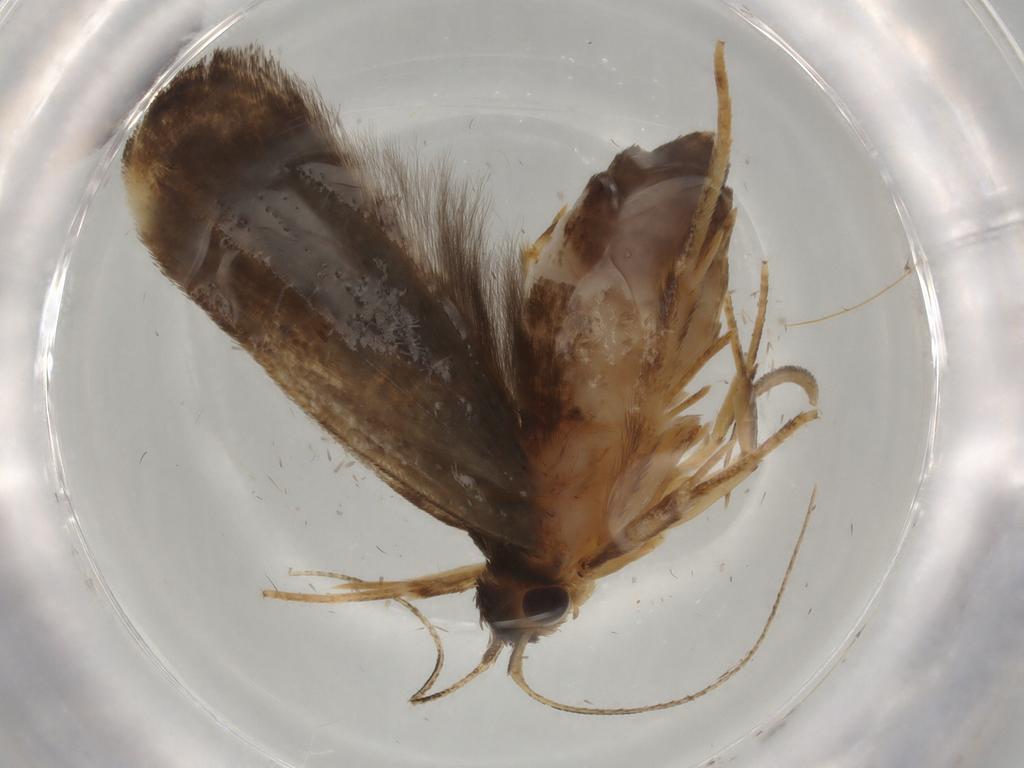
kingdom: Animalia
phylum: Arthropoda
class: Insecta
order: Lepidoptera
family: Gelechiidae
